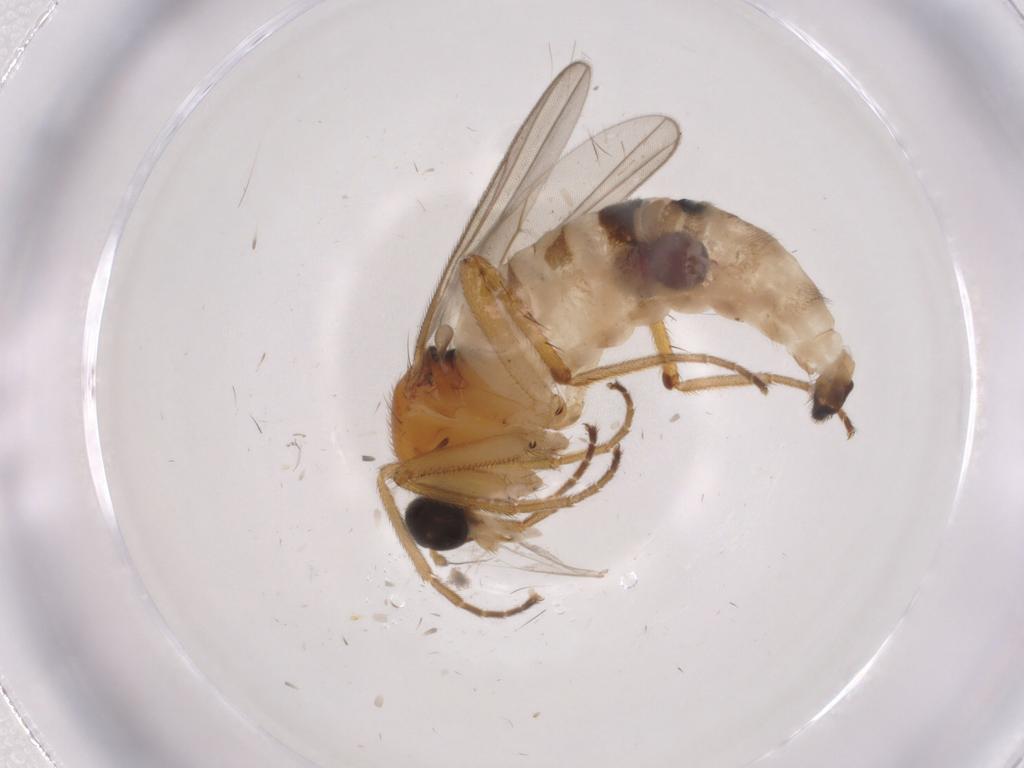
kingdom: Animalia
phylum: Arthropoda
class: Insecta
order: Diptera
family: Hybotidae
